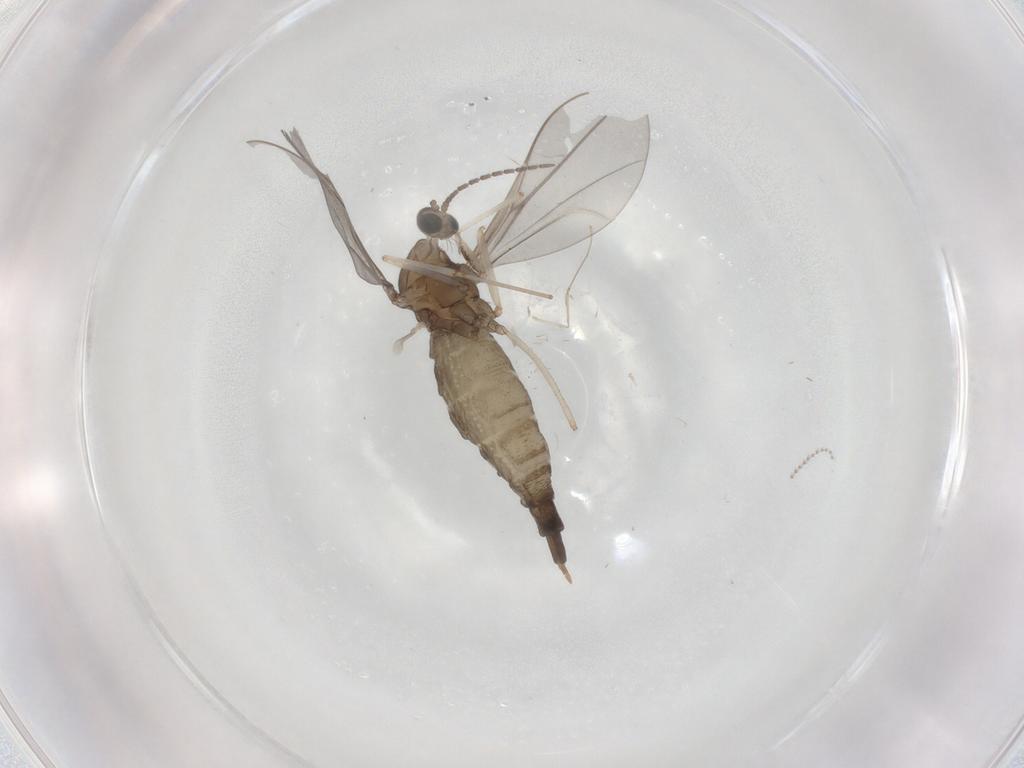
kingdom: Animalia
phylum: Arthropoda
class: Insecta
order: Diptera
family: Cecidomyiidae
